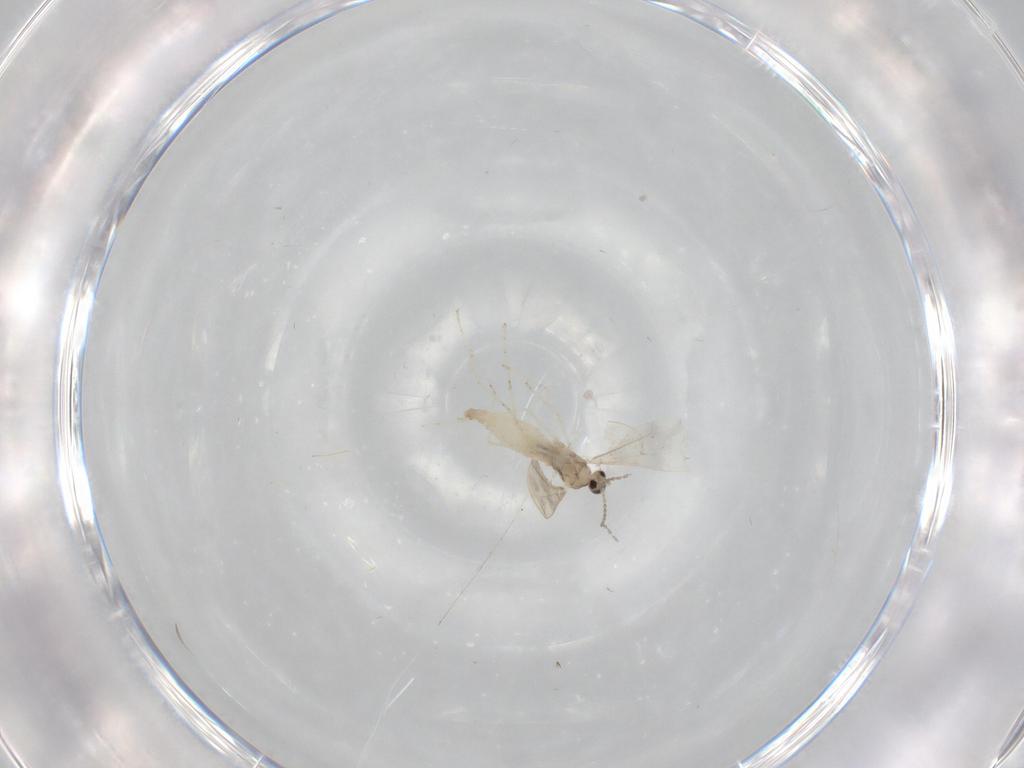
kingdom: Animalia
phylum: Arthropoda
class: Insecta
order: Diptera
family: Cecidomyiidae
